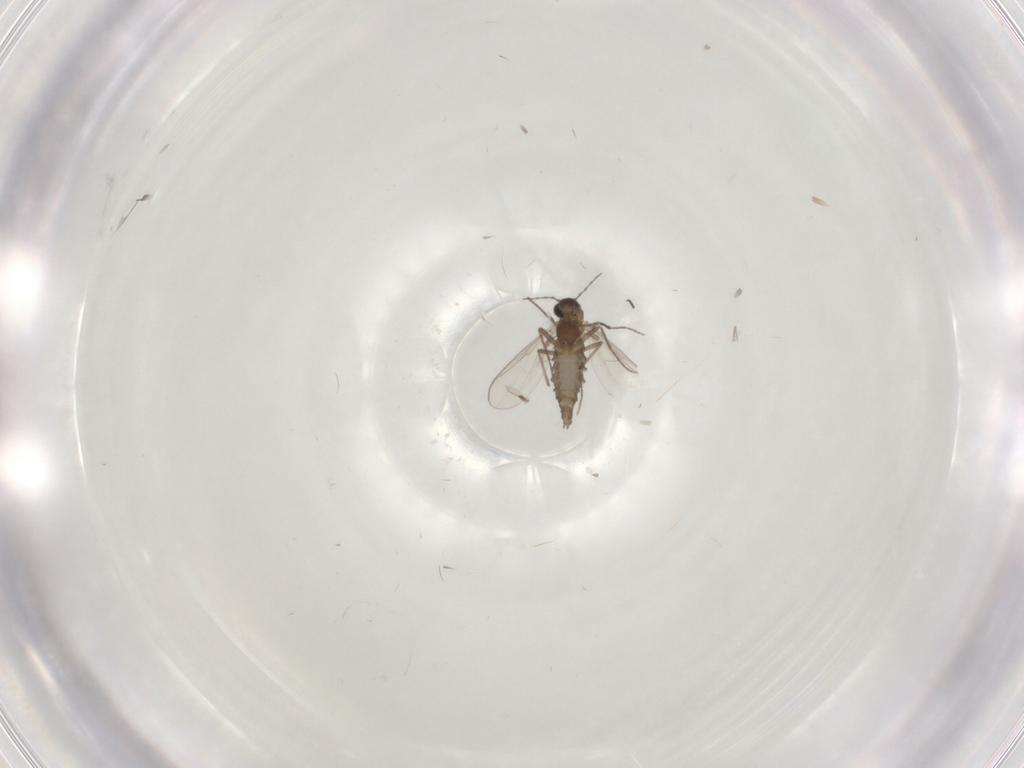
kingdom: Animalia
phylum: Arthropoda
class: Insecta
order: Diptera
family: Chironomidae
